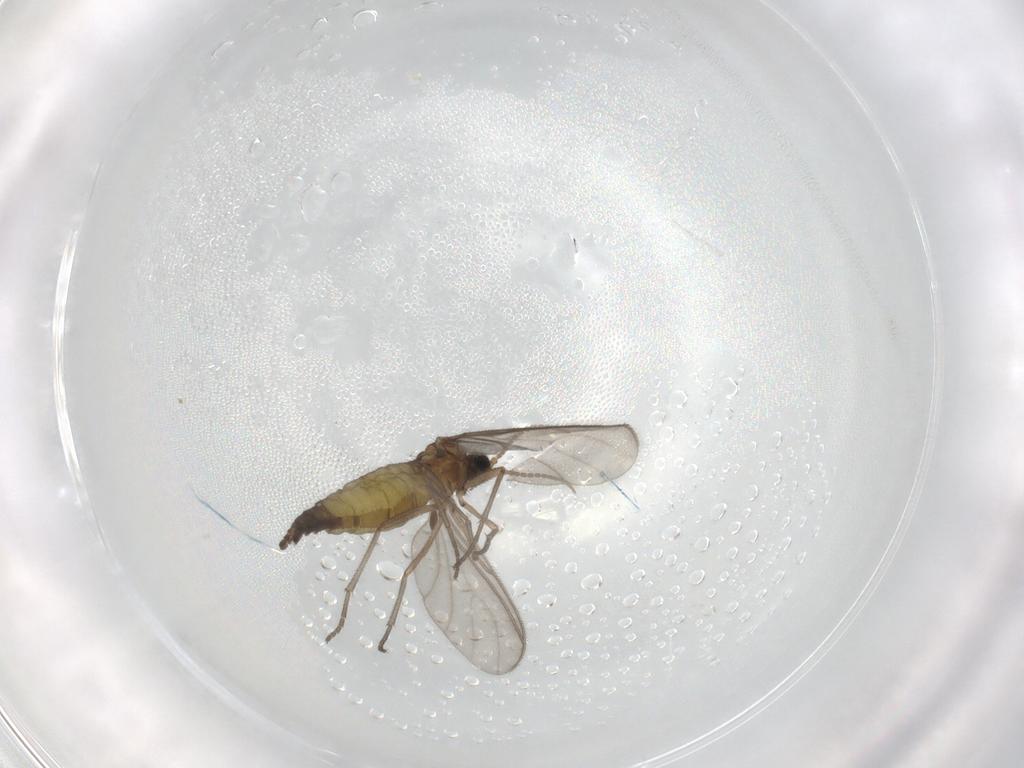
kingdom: Animalia
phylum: Arthropoda
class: Insecta
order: Diptera
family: Sciaridae
